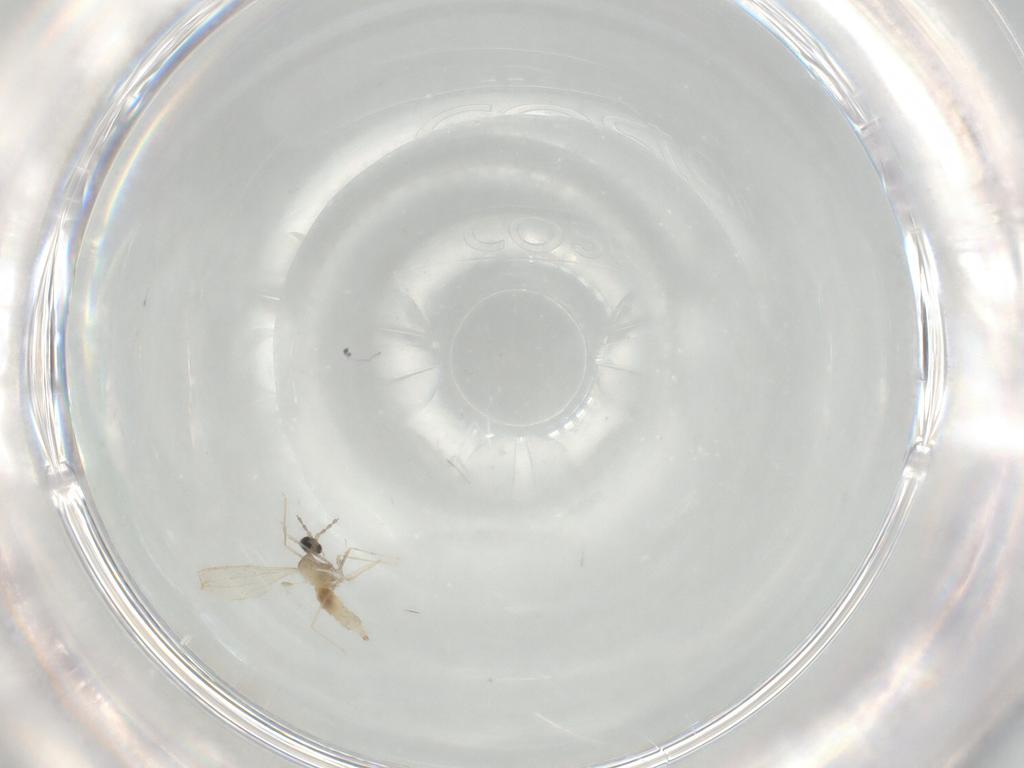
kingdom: Animalia
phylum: Arthropoda
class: Insecta
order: Diptera
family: Cecidomyiidae
